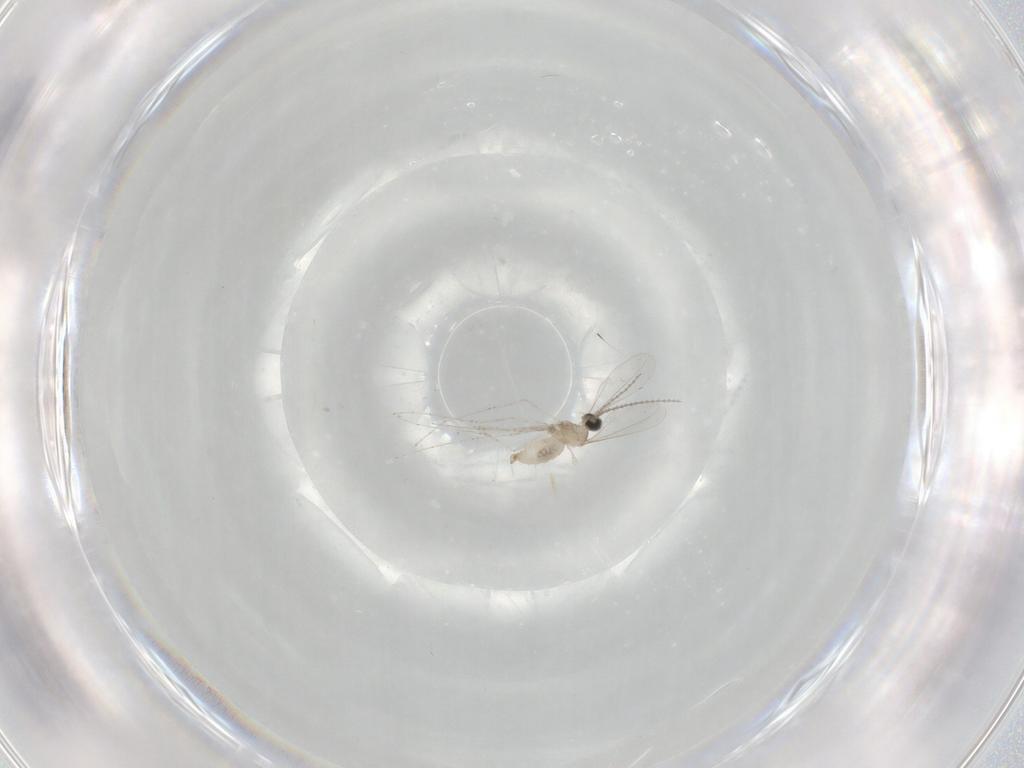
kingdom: Animalia
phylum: Arthropoda
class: Insecta
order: Diptera
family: Cecidomyiidae
